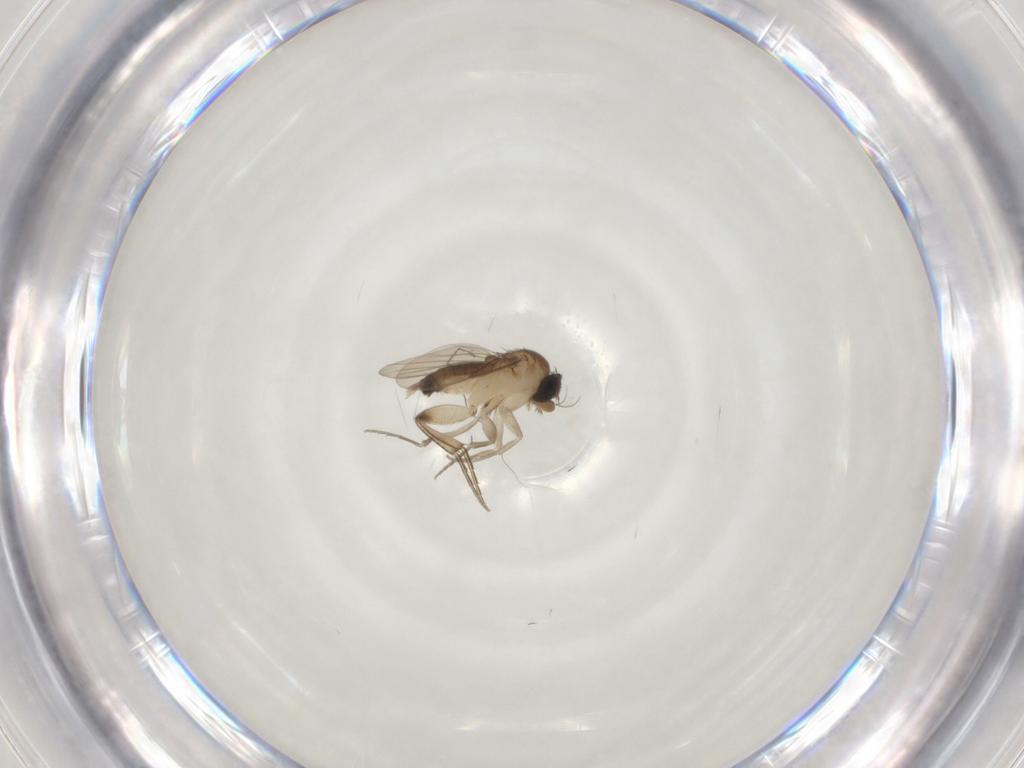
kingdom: Animalia
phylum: Arthropoda
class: Insecta
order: Diptera
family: Phoridae
